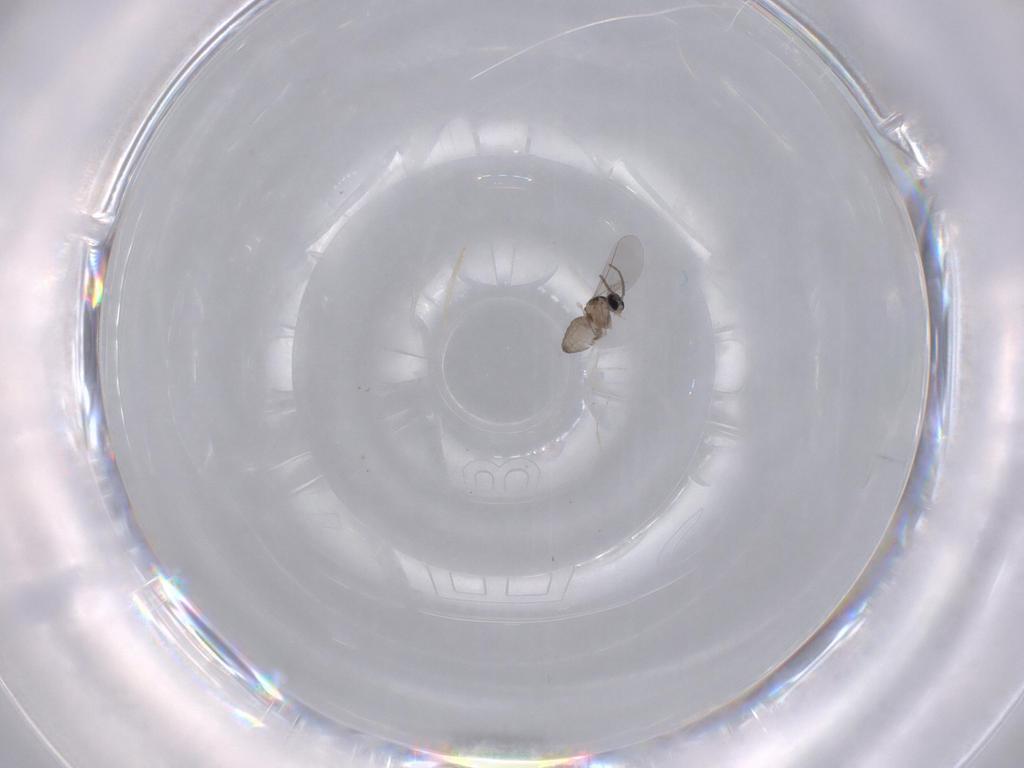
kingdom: Animalia
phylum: Arthropoda
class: Insecta
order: Diptera
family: Cecidomyiidae
